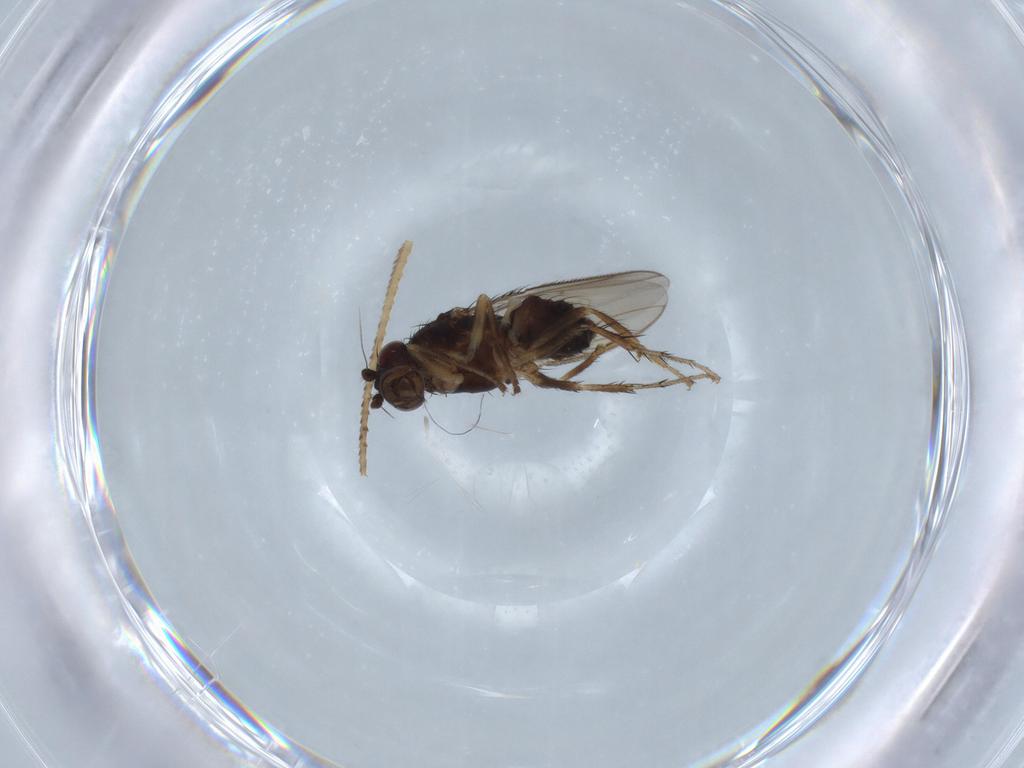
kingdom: Animalia
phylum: Arthropoda
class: Insecta
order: Diptera
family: Sphaeroceridae
